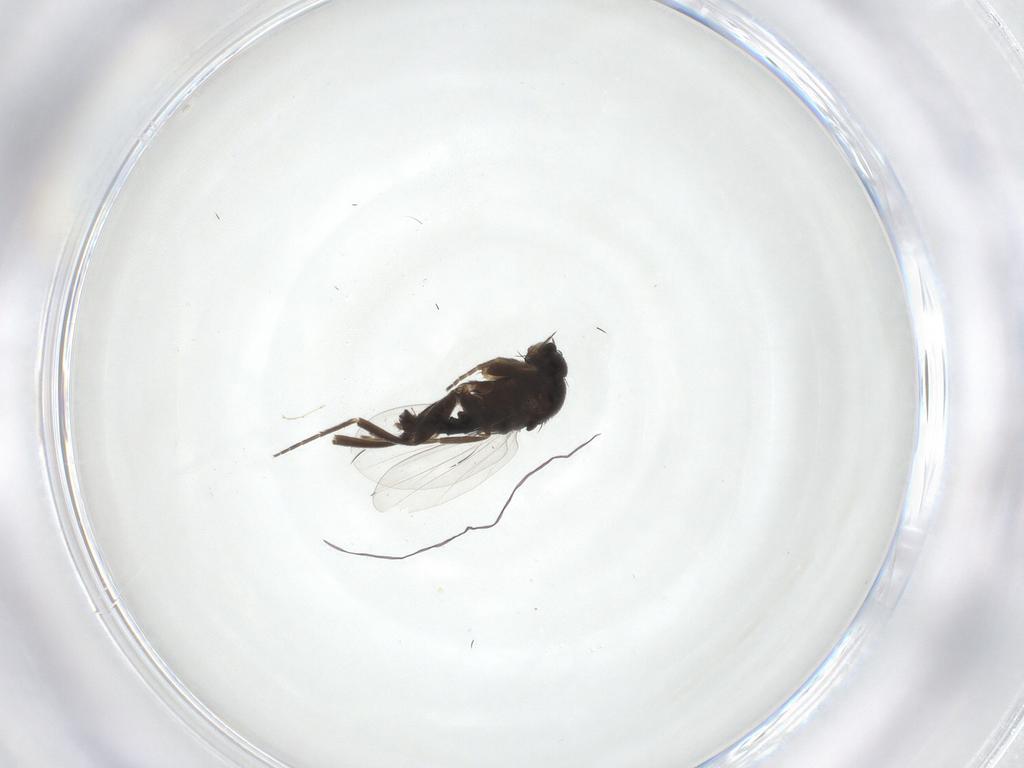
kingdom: Animalia
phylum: Arthropoda
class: Insecta
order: Diptera
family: Phoridae
